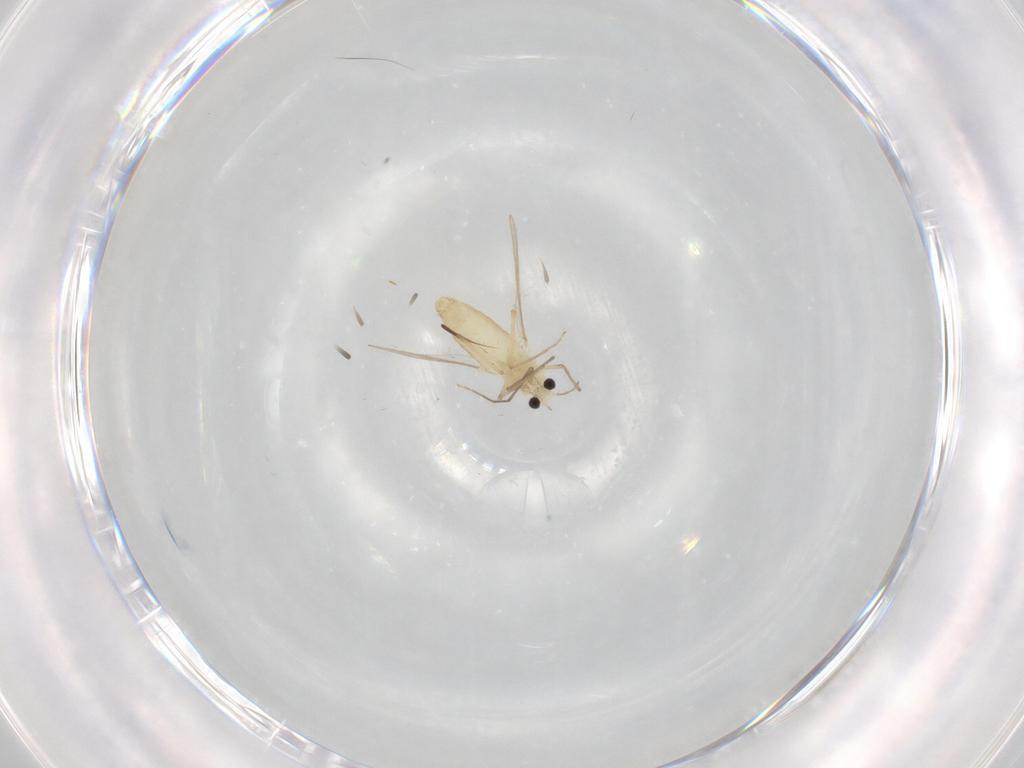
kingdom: Animalia
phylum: Arthropoda
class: Insecta
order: Diptera
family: Chironomidae
